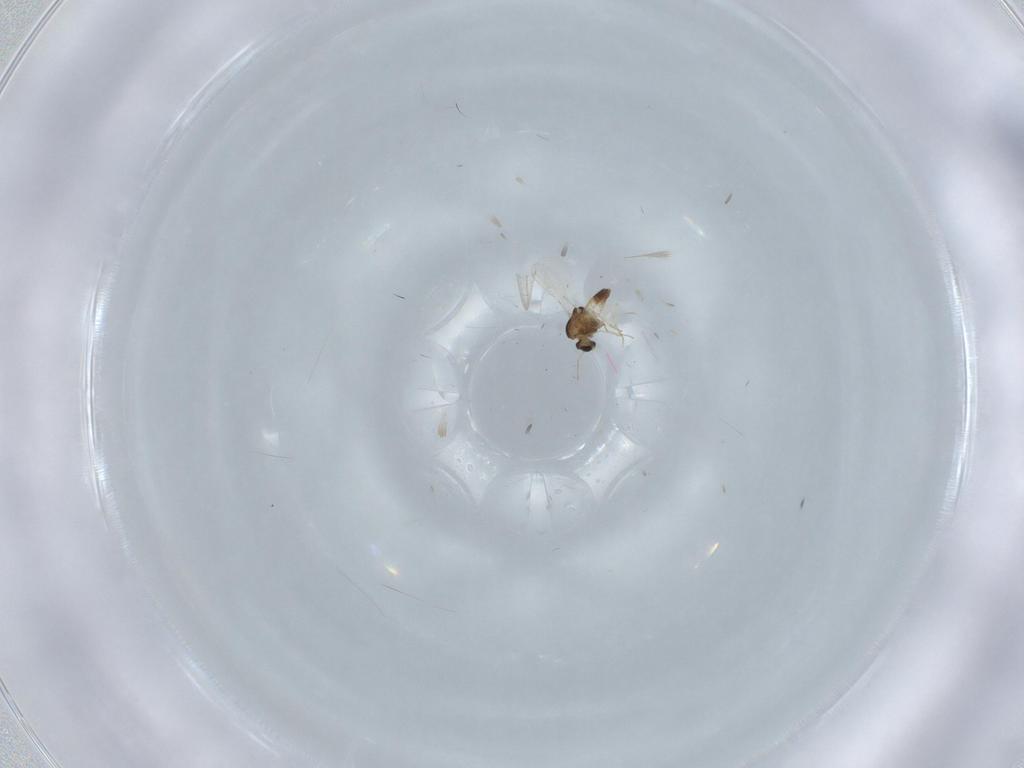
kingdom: Animalia
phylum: Arthropoda
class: Insecta
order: Diptera
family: Chironomidae
